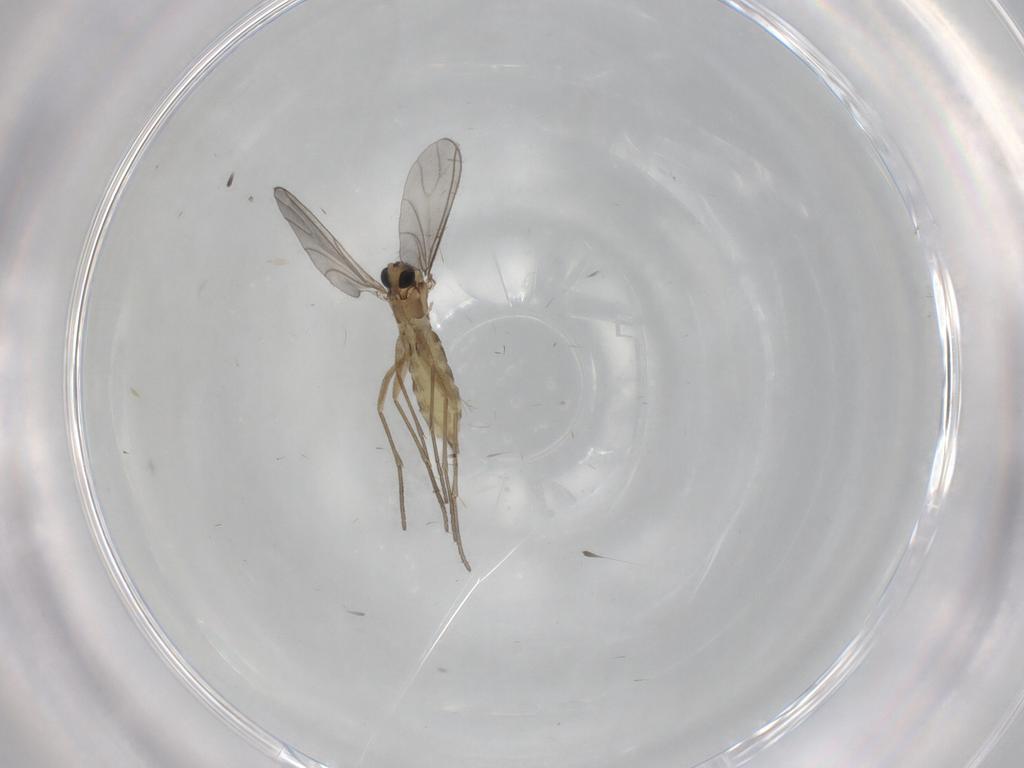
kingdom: Animalia
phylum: Arthropoda
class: Insecta
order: Diptera
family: Sciaridae
